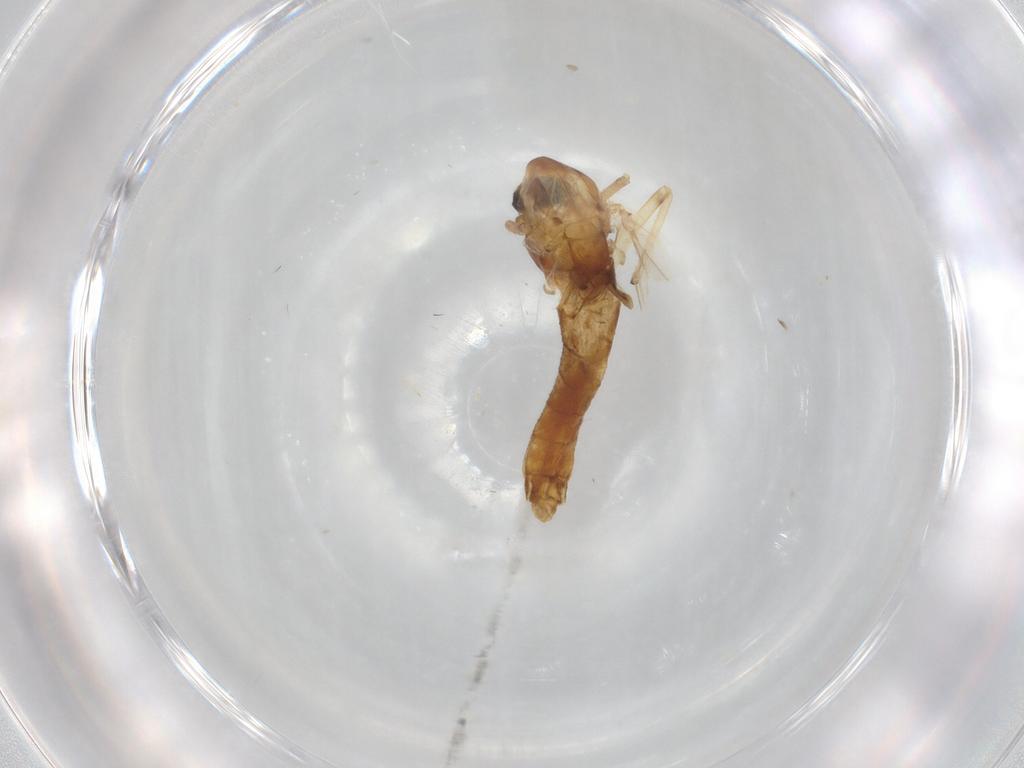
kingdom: Animalia
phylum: Arthropoda
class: Insecta
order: Diptera
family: Chironomidae
